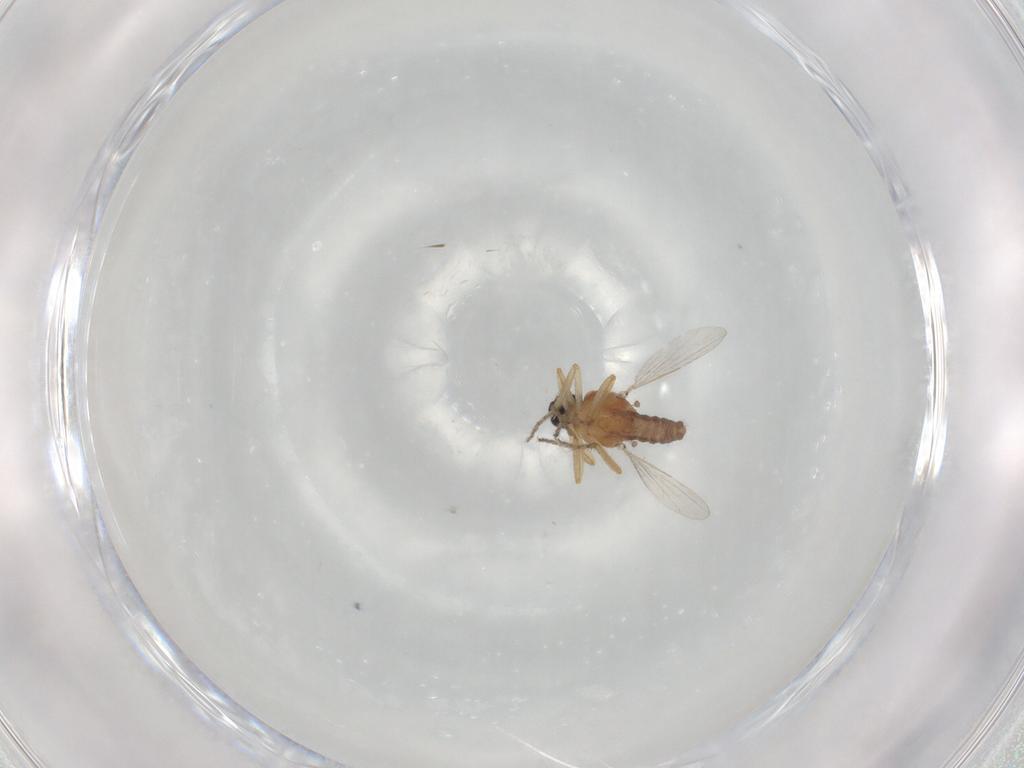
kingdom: Animalia
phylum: Arthropoda
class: Insecta
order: Diptera
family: Ceratopogonidae
